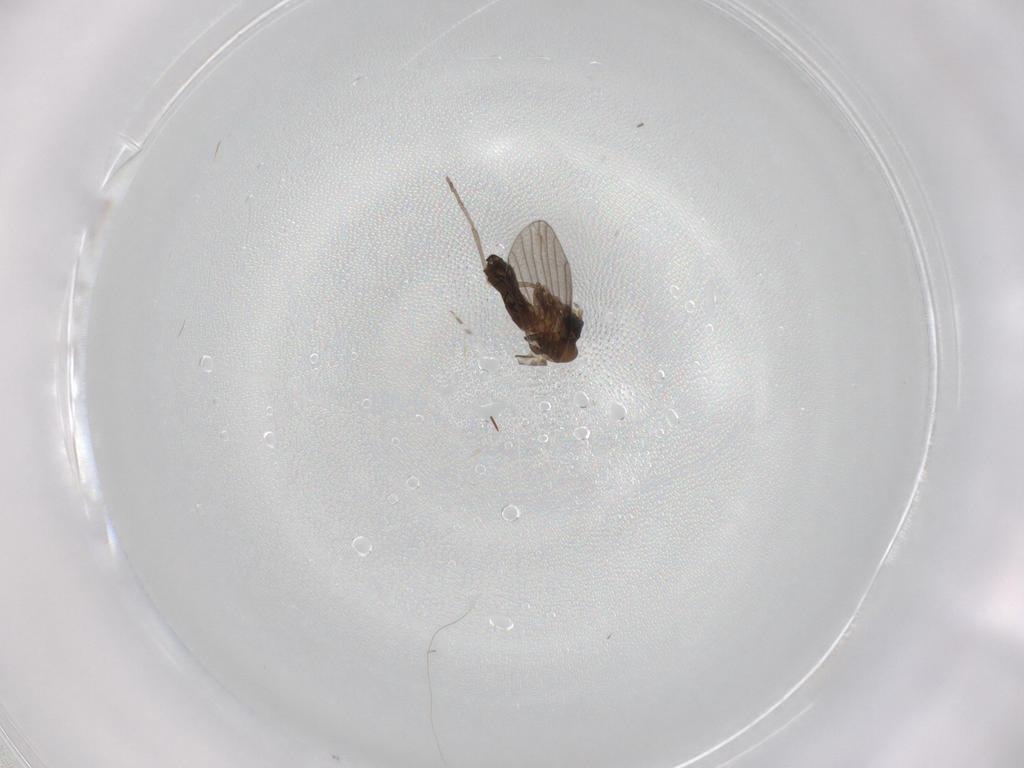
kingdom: Animalia
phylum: Arthropoda
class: Insecta
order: Diptera
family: Psychodidae
